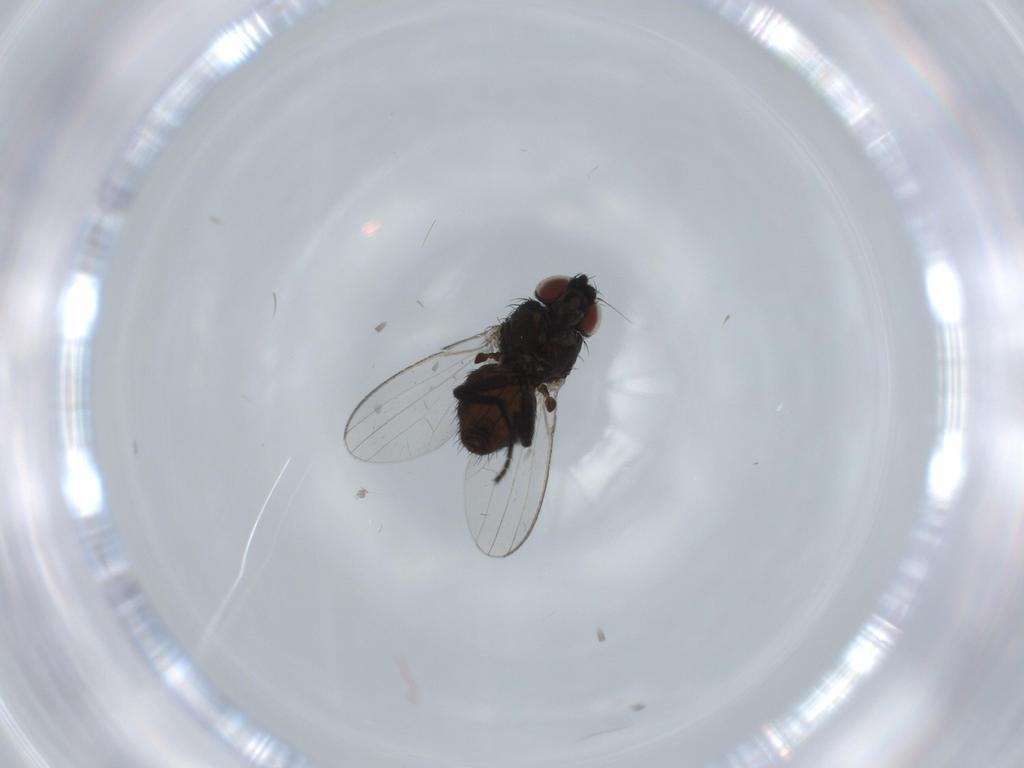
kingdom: Animalia
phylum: Arthropoda
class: Insecta
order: Diptera
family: Milichiidae
